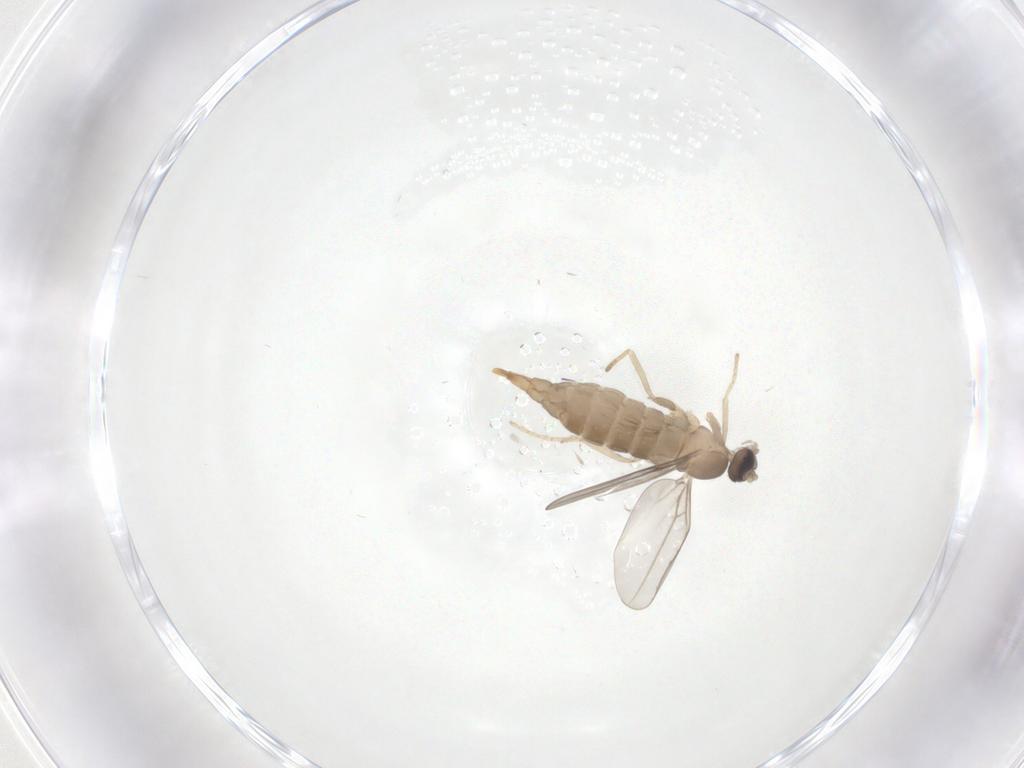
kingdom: Animalia
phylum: Arthropoda
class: Insecta
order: Diptera
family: Cecidomyiidae
